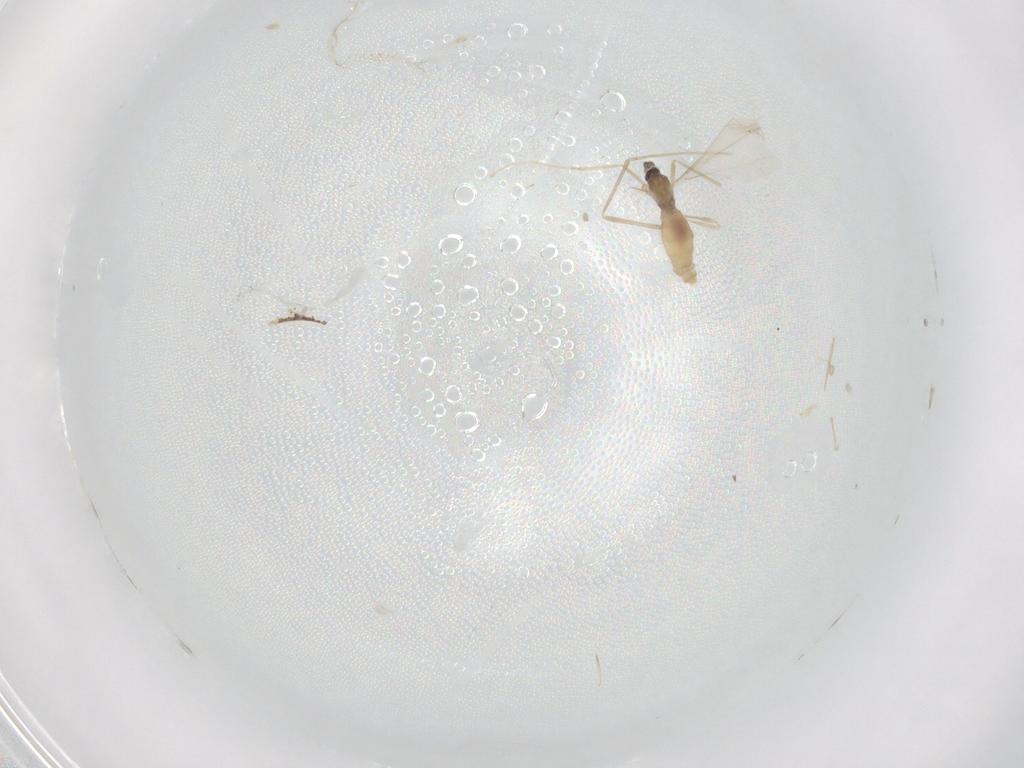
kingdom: Animalia
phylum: Arthropoda
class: Insecta
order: Diptera
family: Cecidomyiidae
